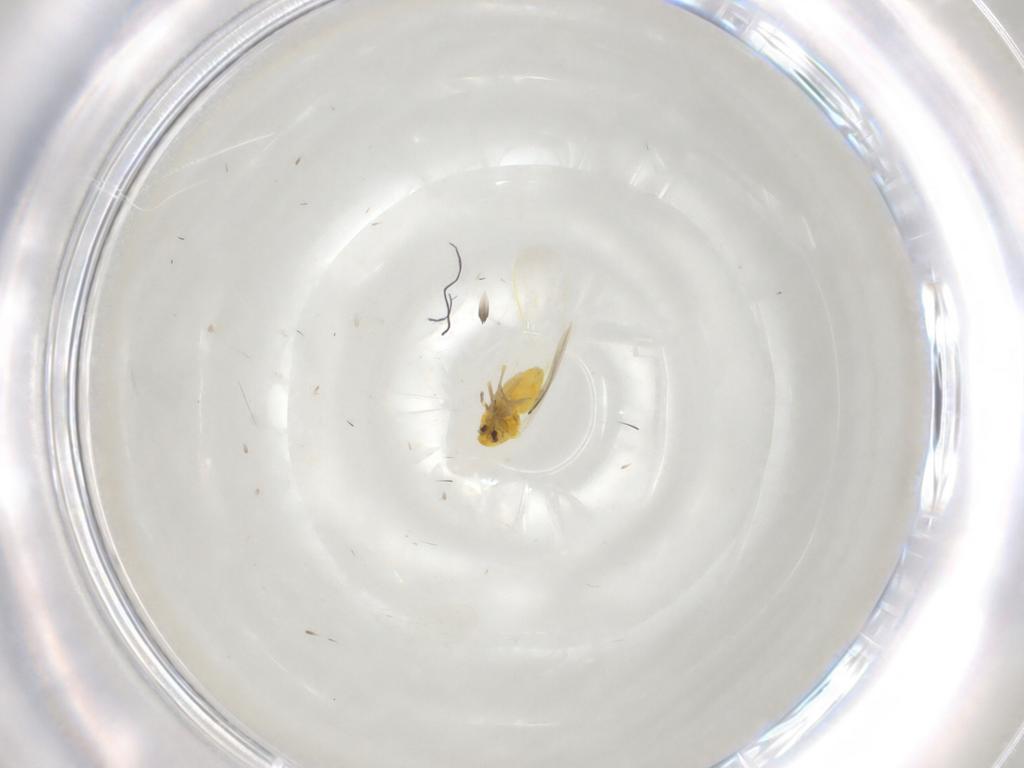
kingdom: Animalia
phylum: Arthropoda
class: Insecta
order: Hemiptera
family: Aleyrodidae
